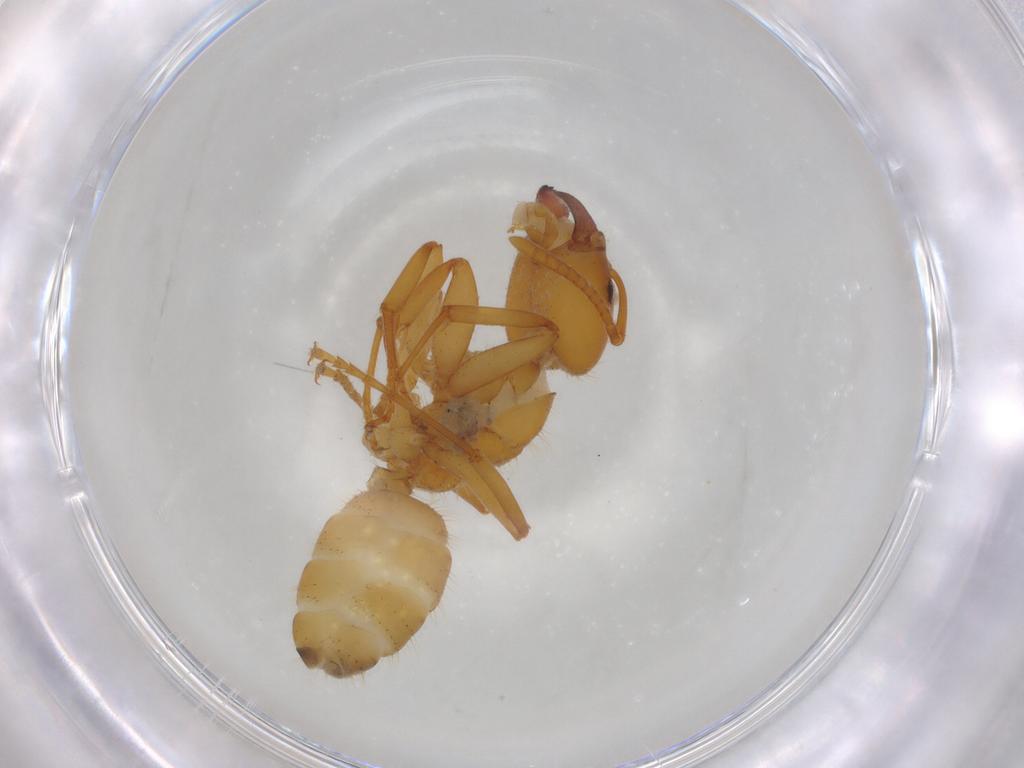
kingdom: Animalia
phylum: Arthropoda
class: Insecta
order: Hymenoptera
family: Formicidae
